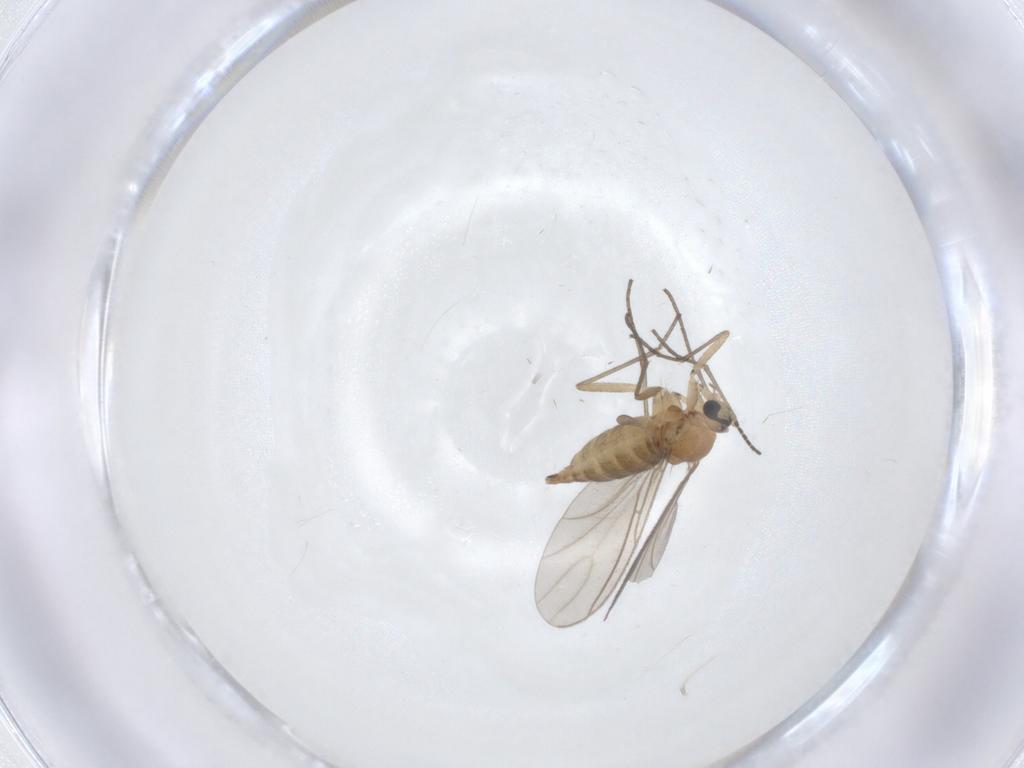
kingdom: Animalia
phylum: Arthropoda
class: Insecta
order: Diptera
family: Sciaridae
